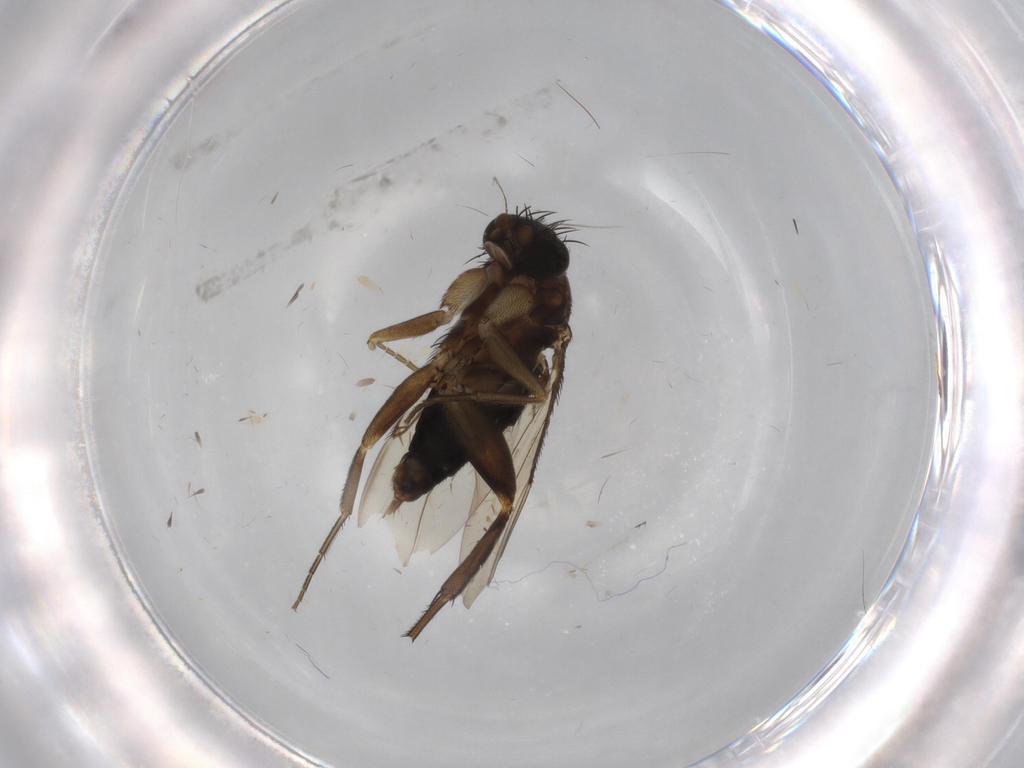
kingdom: Animalia
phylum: Arthropoda
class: Insecta
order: Diptera
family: Phoridae
